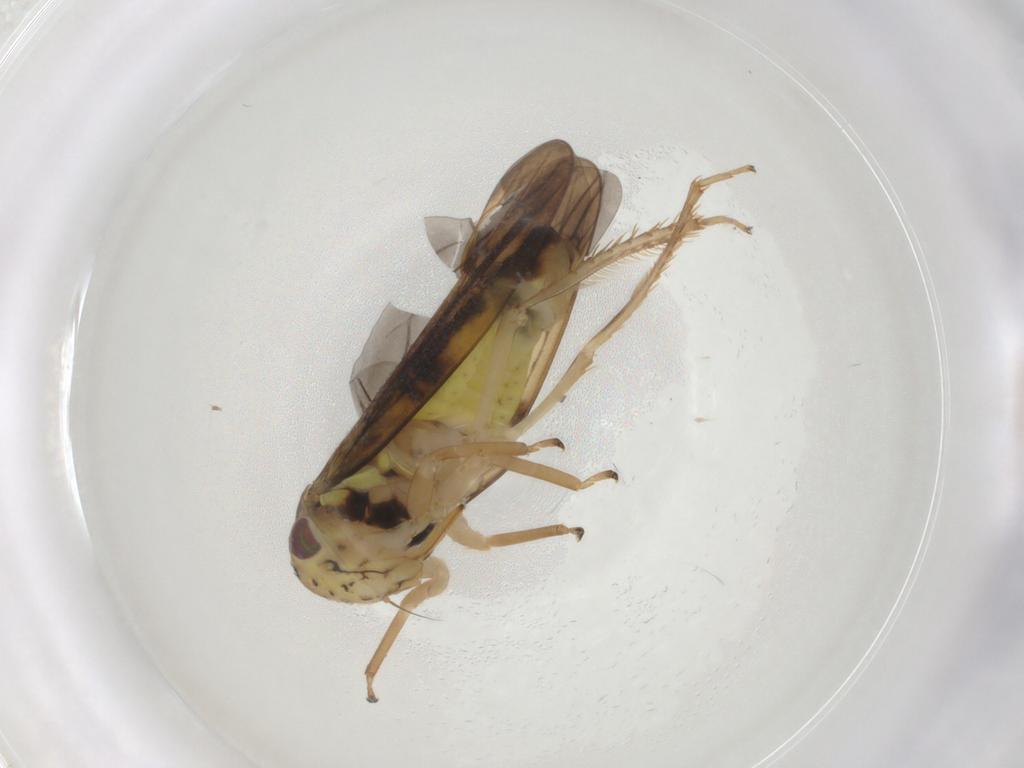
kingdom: Animalia
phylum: Arthropoda
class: Insecta
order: Hemiptera
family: Cicadellidae
